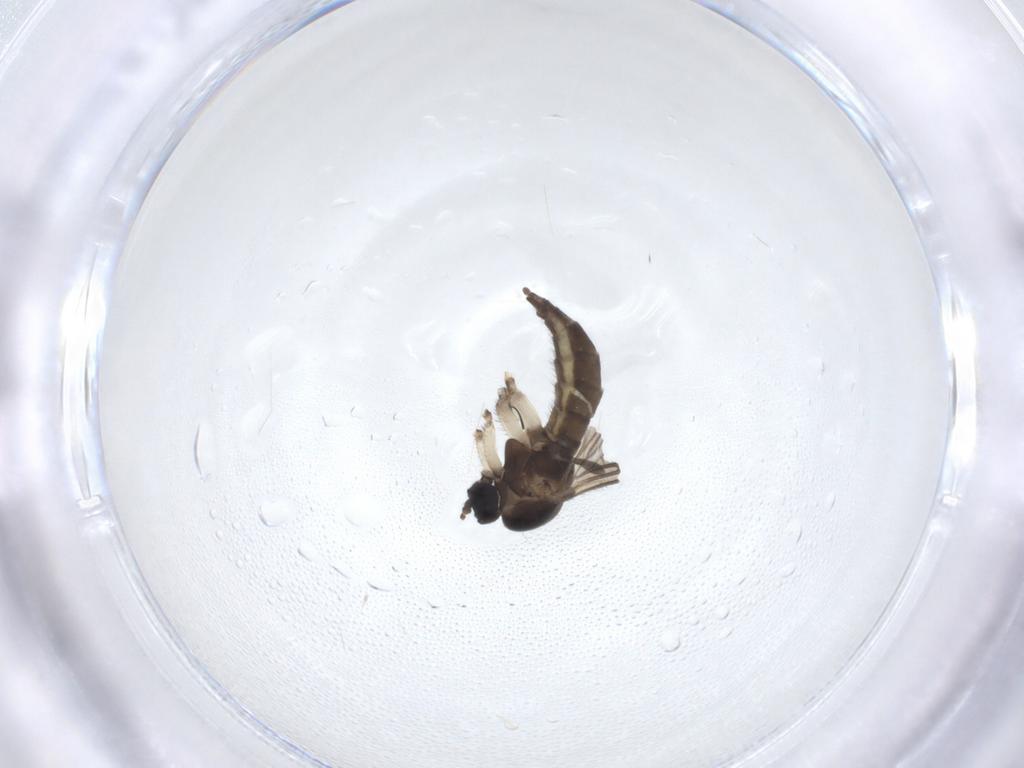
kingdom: Animalia
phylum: Arthropoda
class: Insecta
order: Diptera
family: Sciaridae
